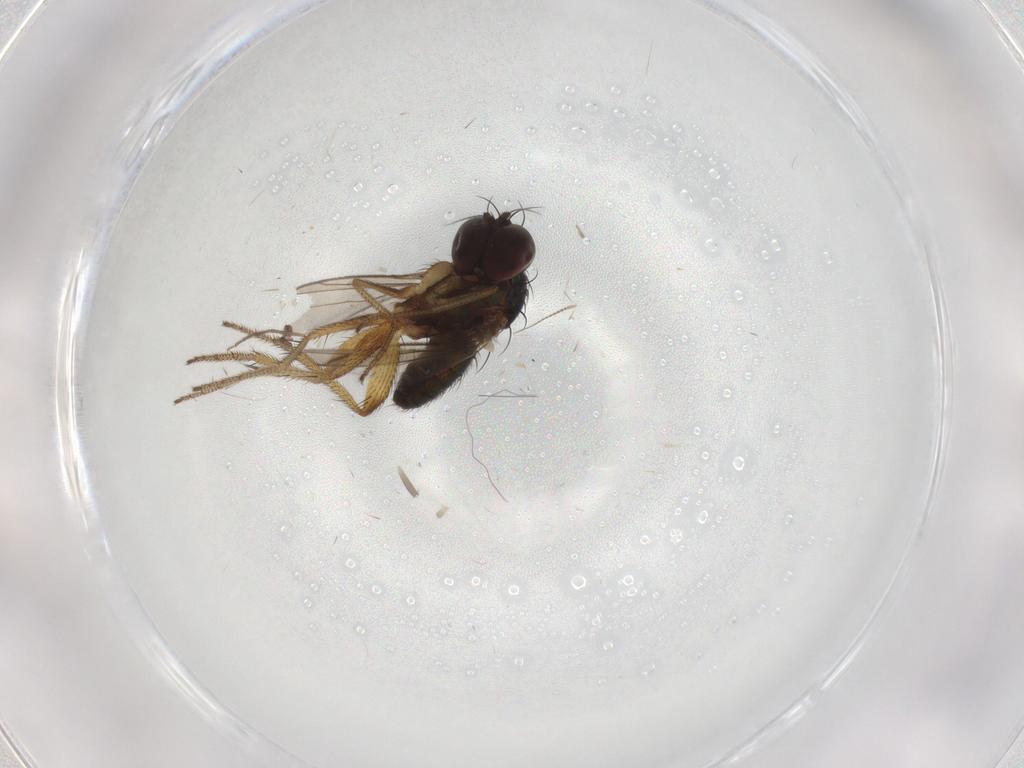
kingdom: Animalia
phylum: Arthropoda
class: Insecta
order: Diptera
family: Dolichopodidae
